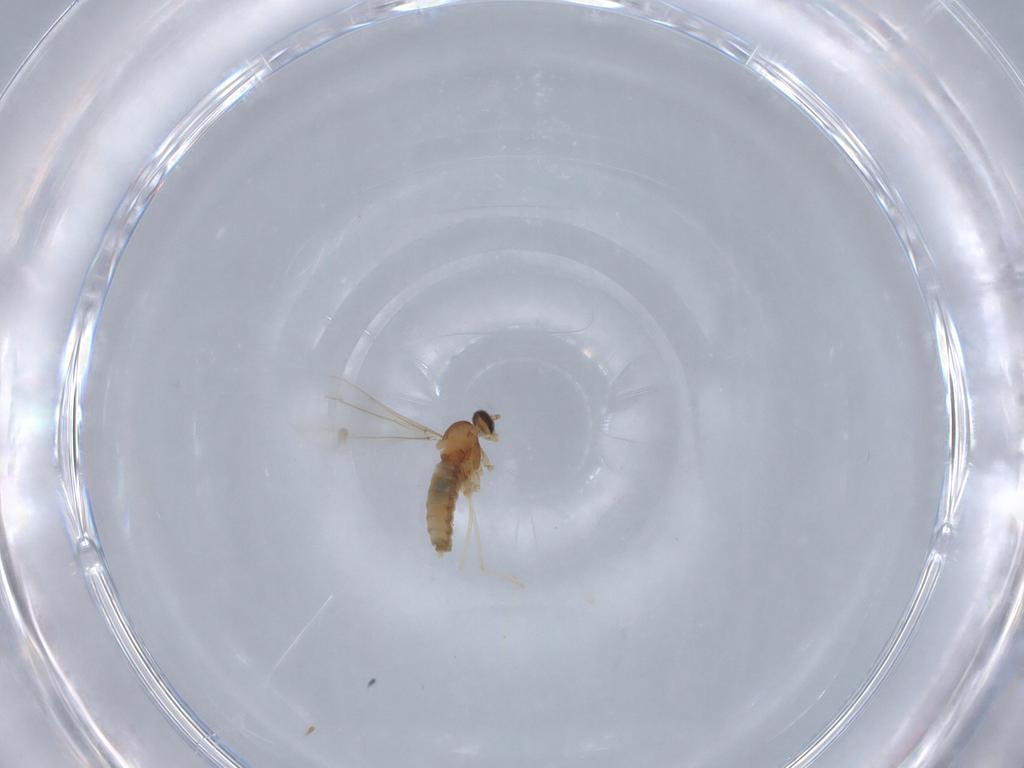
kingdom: Animalia
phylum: Arthropoda
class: Insecta
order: Diptera
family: Cecidomyiidae
